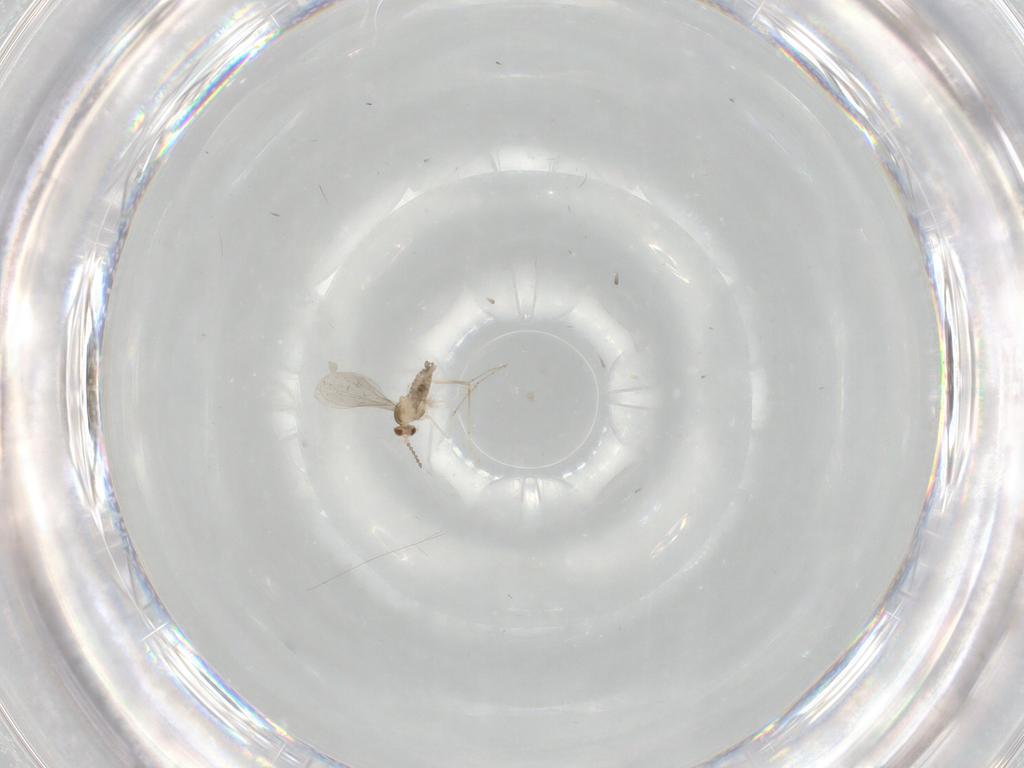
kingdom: Animalia
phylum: Arthropoda
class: Insecta
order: Diptera
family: Cecidomyiidae
